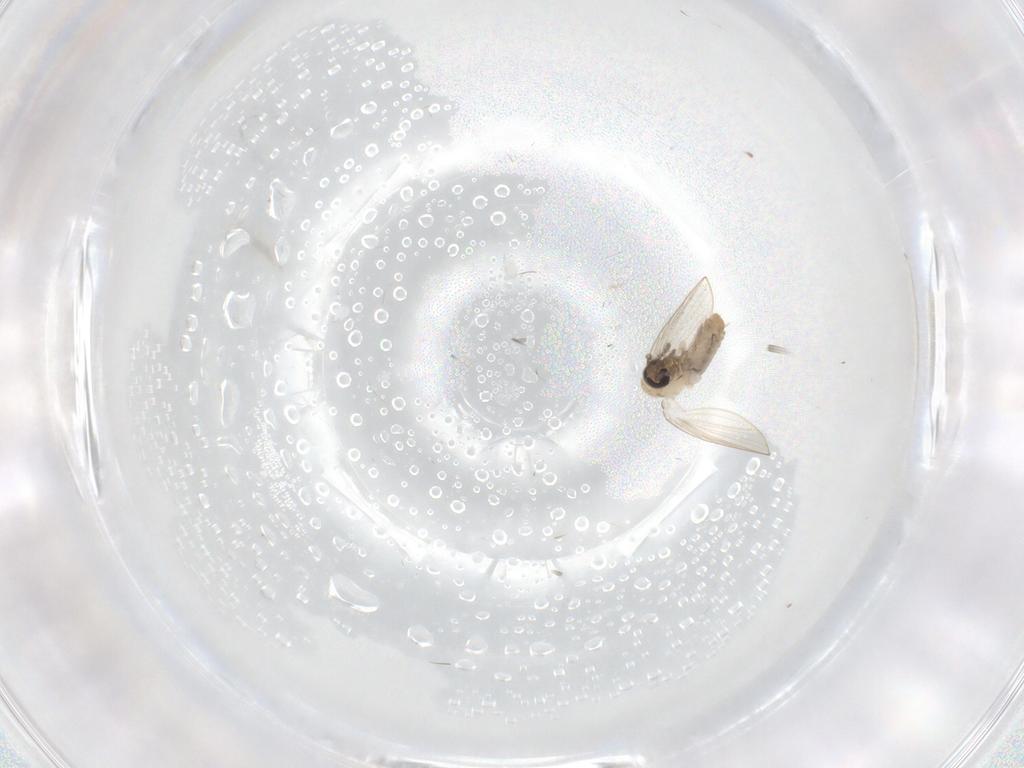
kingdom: Animalia
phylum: Arthropoda
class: Insecta
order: Diptera
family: Psychodidae
